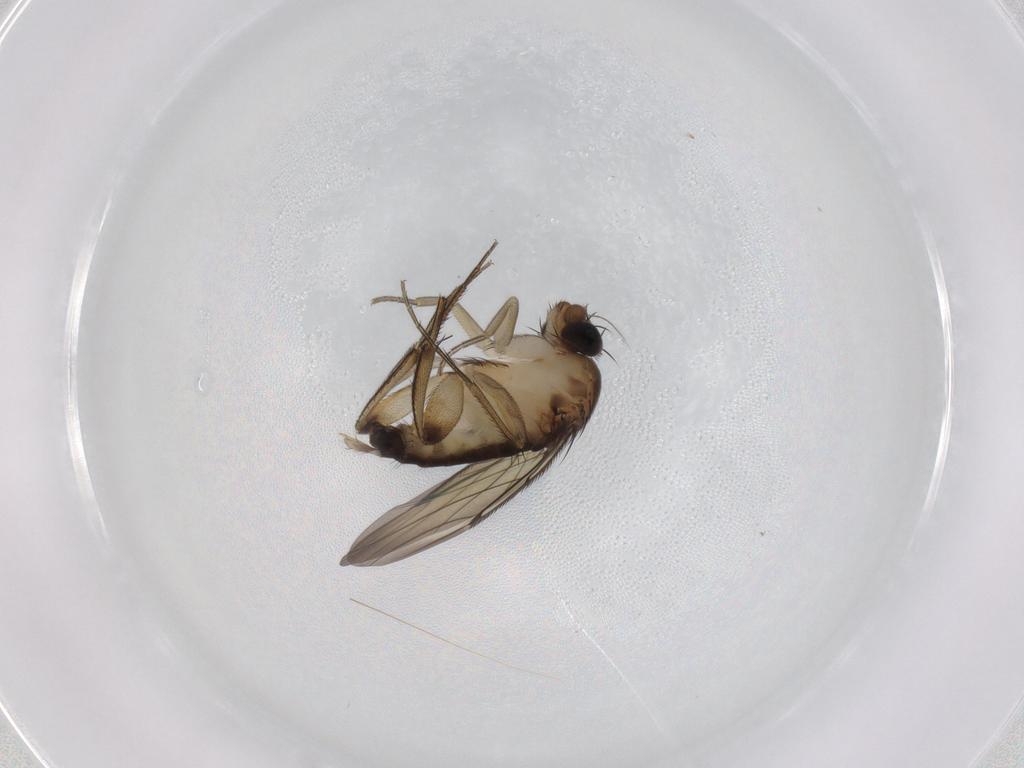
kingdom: Animalia
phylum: Arthropoda
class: Insecta
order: Diptera
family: Phoridae
